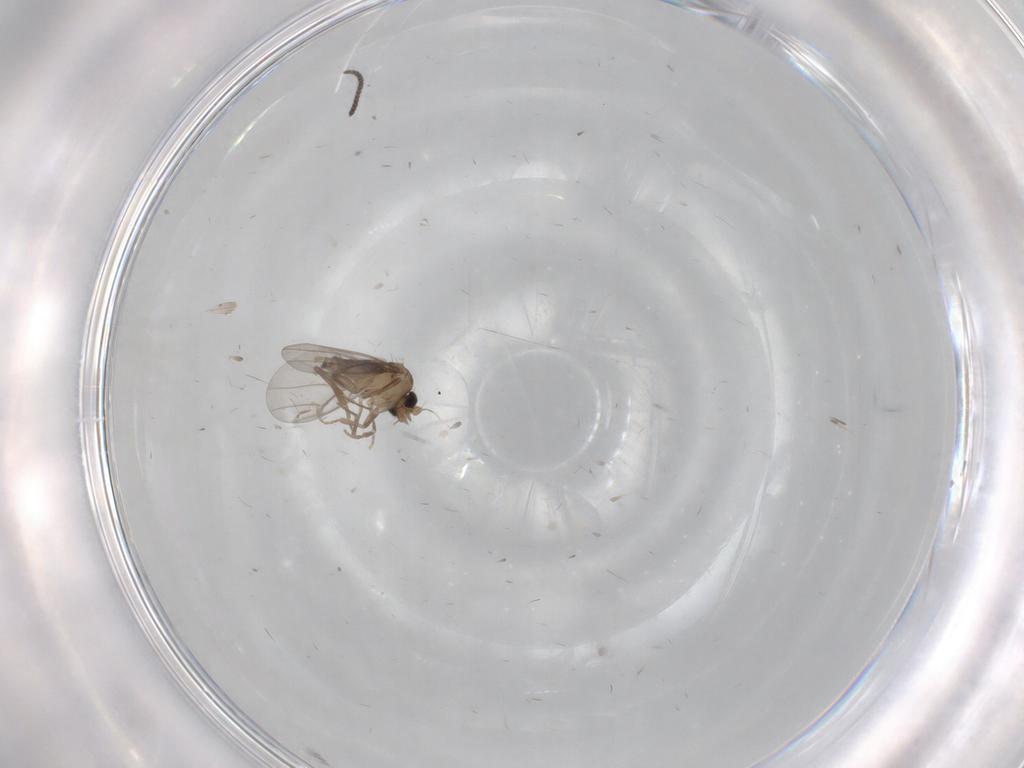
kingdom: Animalia
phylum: Arthropoda
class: Insecta
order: Diptera
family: Sciaridae
